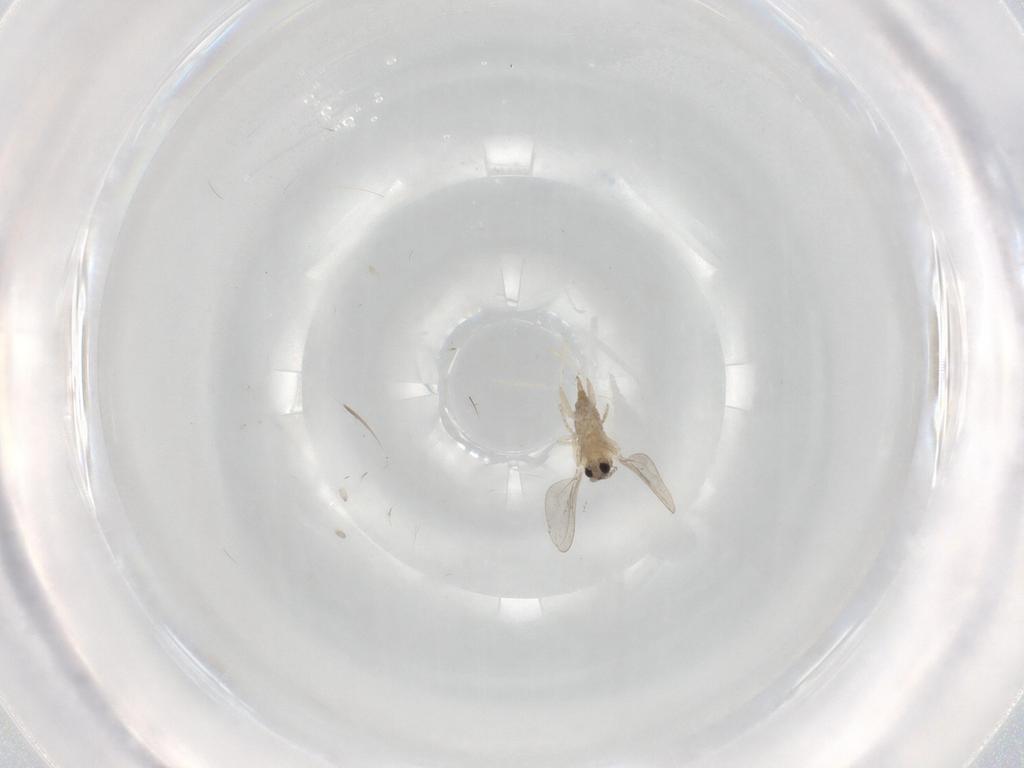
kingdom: Animalia
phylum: Arthropoda
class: Insecta
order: Diptera
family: Cecidomyiidae
